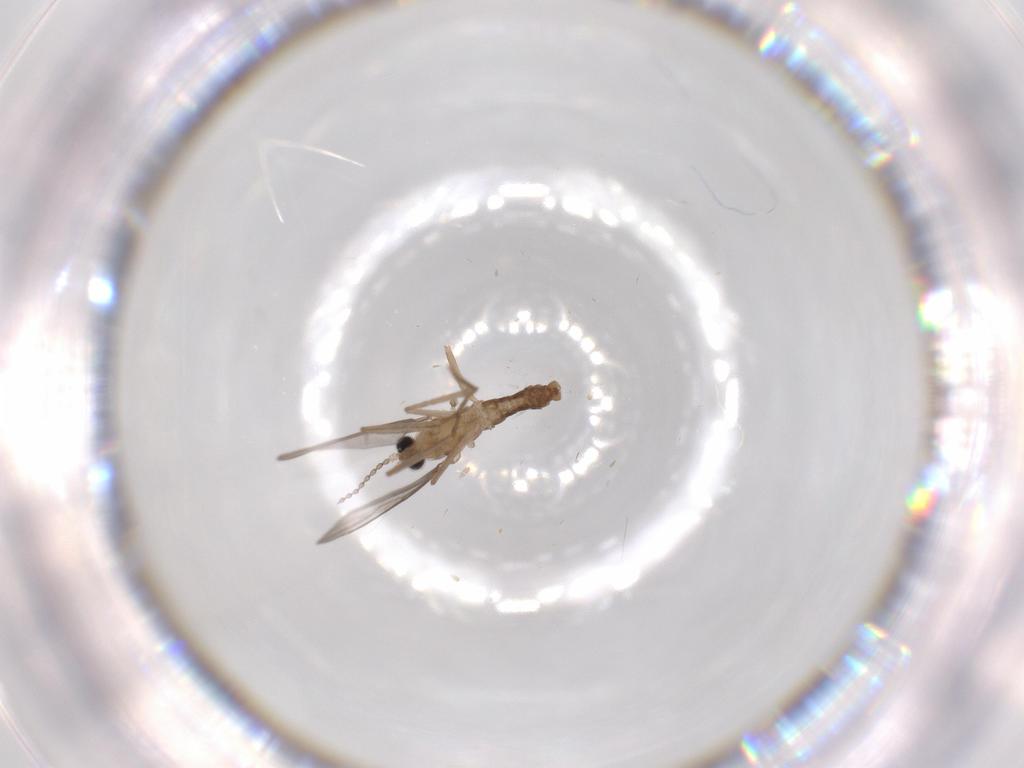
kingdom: Animalia
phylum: Arthropoda
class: Insecta
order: Diptera
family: Cecidomyiidae
